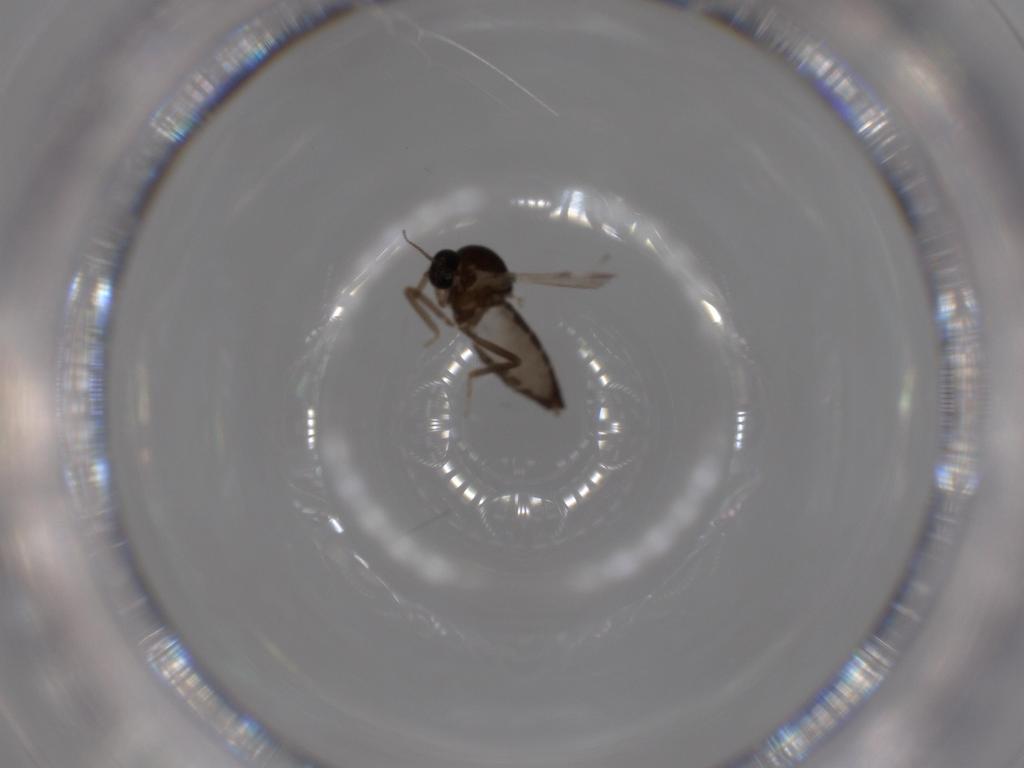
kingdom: Animalia
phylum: Arthropoda
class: Insecta
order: Diptera
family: Ceratopogonidae
